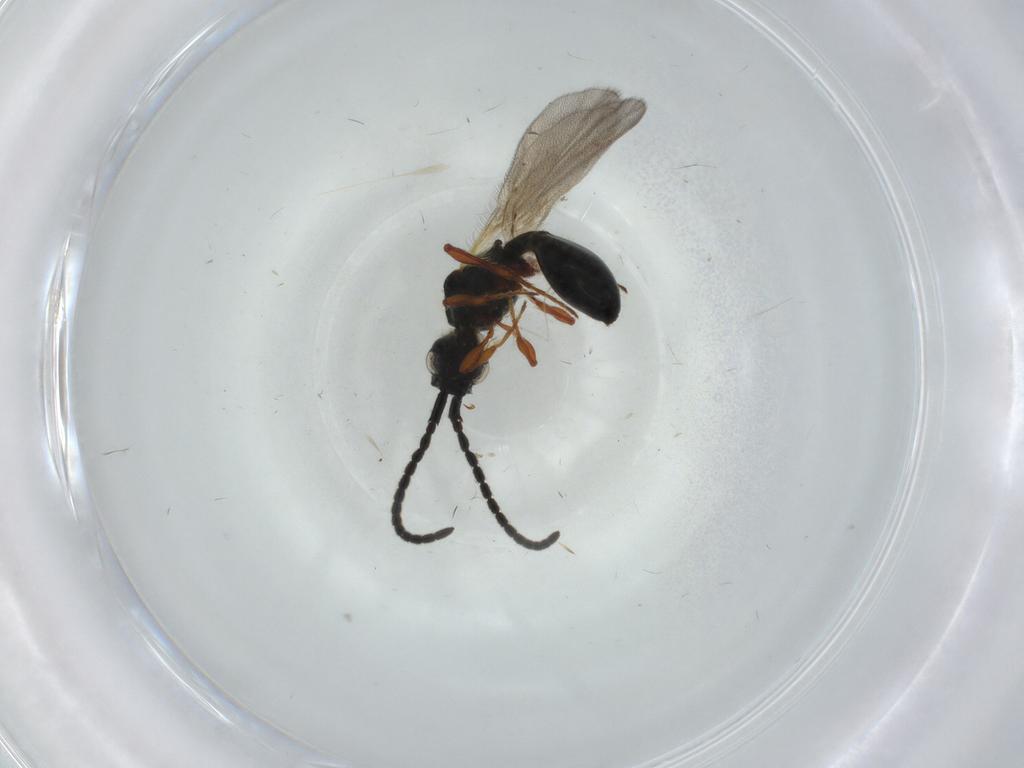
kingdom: Animalia
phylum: Arthropoda
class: Insecta
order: Hymenoptera
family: Diapriidae
